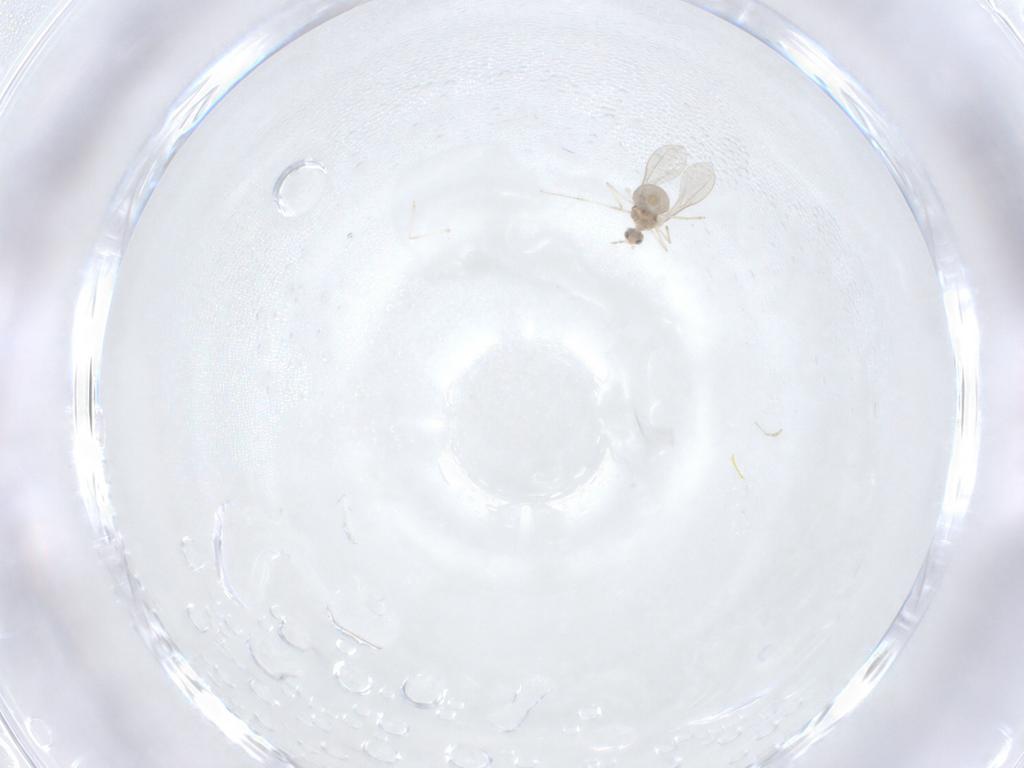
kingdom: Animalia
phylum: Arthropoda
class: Insecta
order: Diptera
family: Cecidomyiidae
